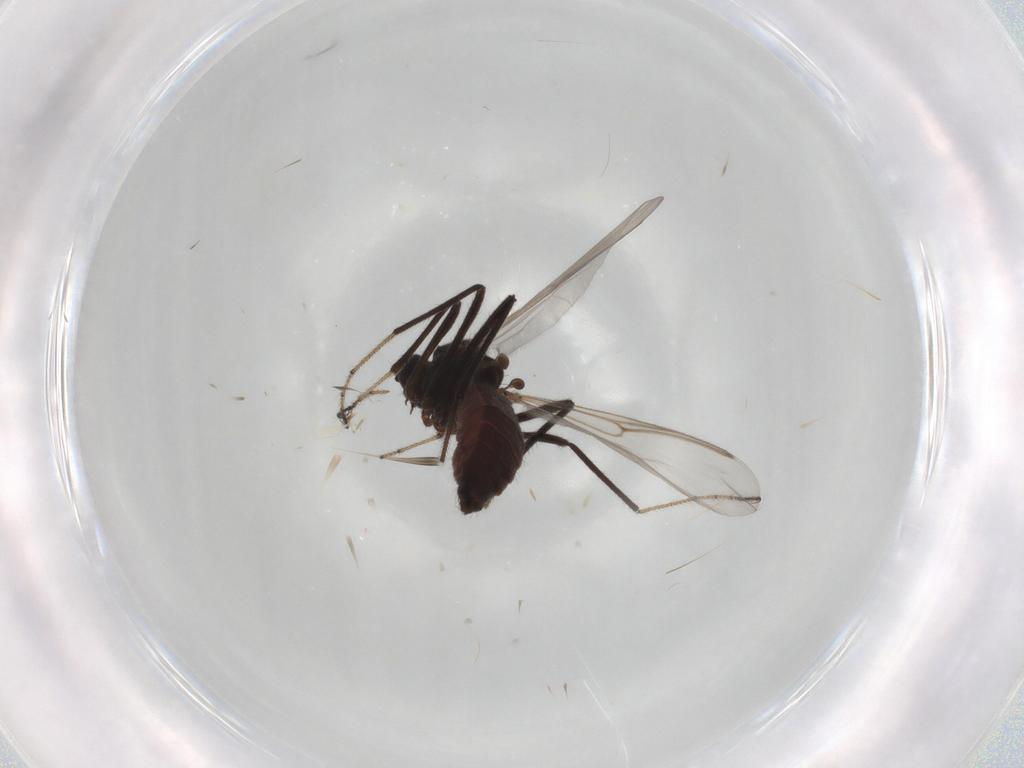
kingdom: Animalia
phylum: Arthropoda
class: Insecta
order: Diptera
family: Ceratopogonidae
